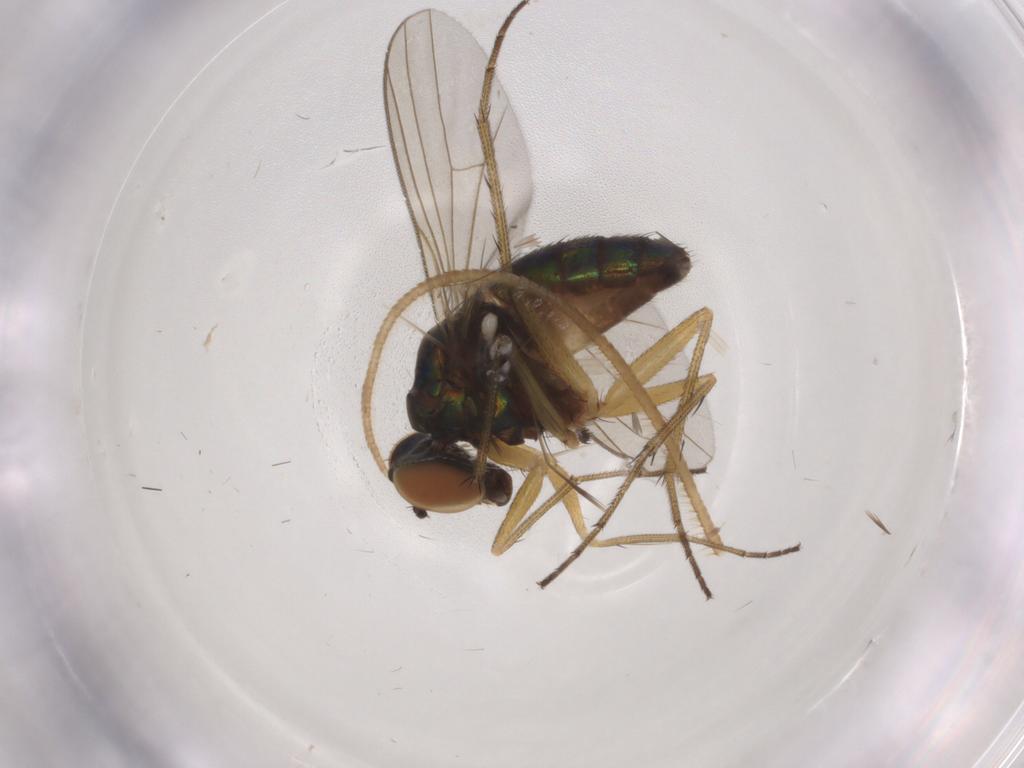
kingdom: Animalia
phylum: Arthropoda
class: Insecta
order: Diptera
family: Dolichopodidae
